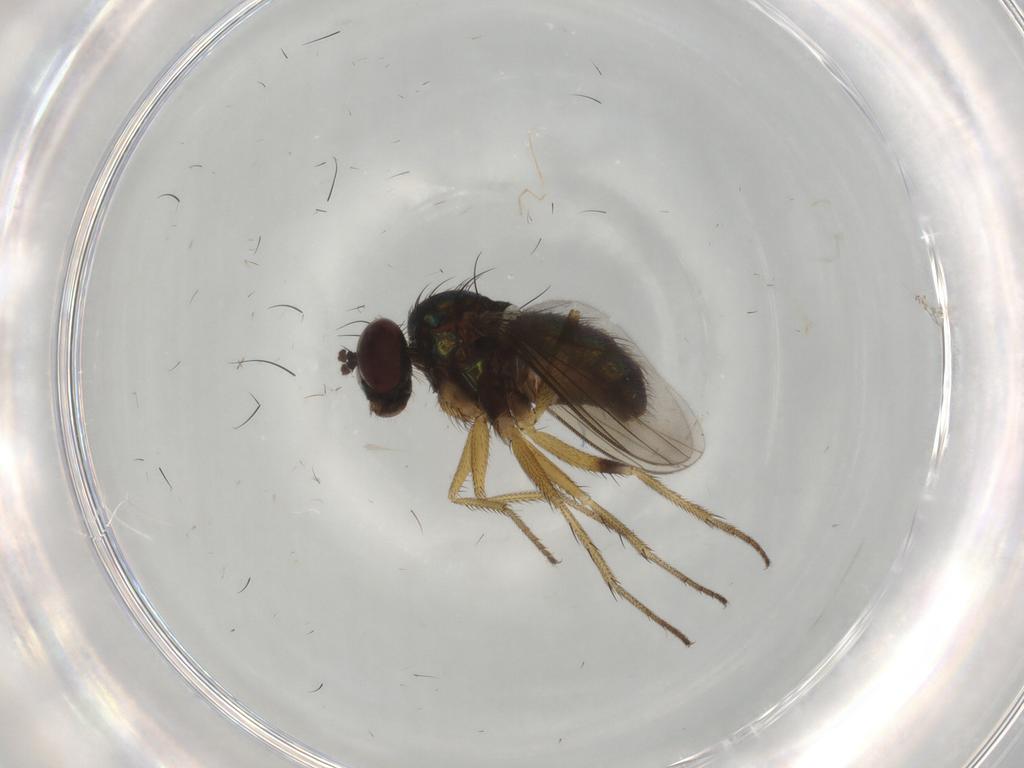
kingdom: Animalia
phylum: Arthropoda
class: Insecta
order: Diptera
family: Dolichopodidae
